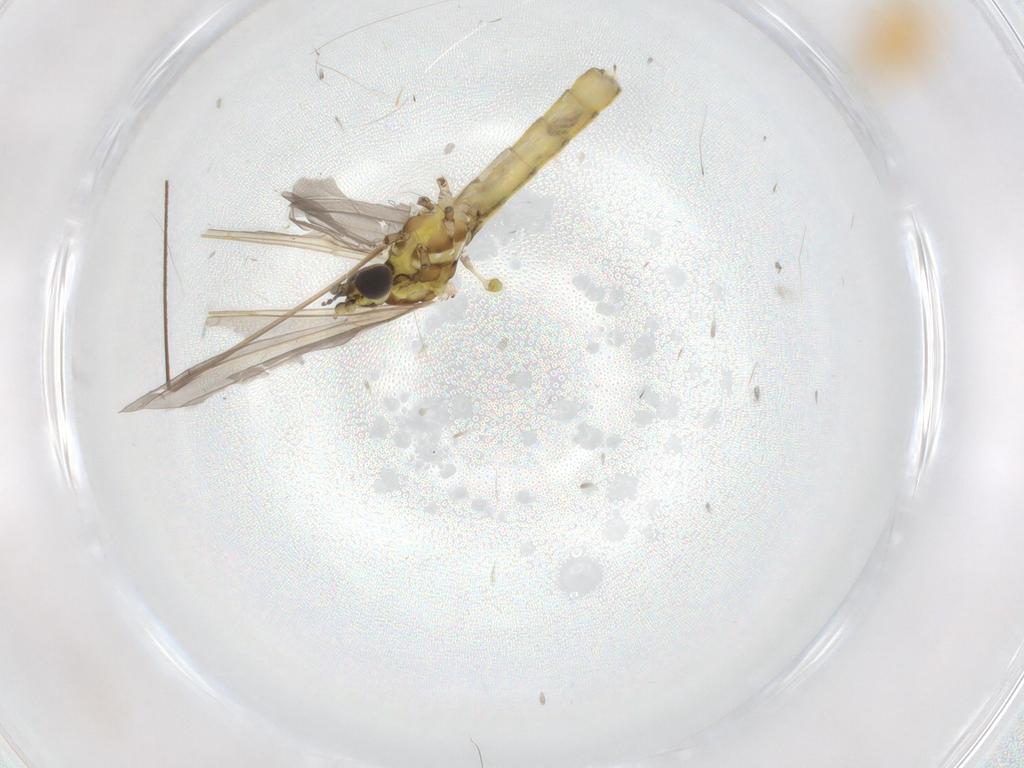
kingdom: Animalia
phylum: Arthropoda
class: Insecta
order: Diptera
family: Limoniidae
